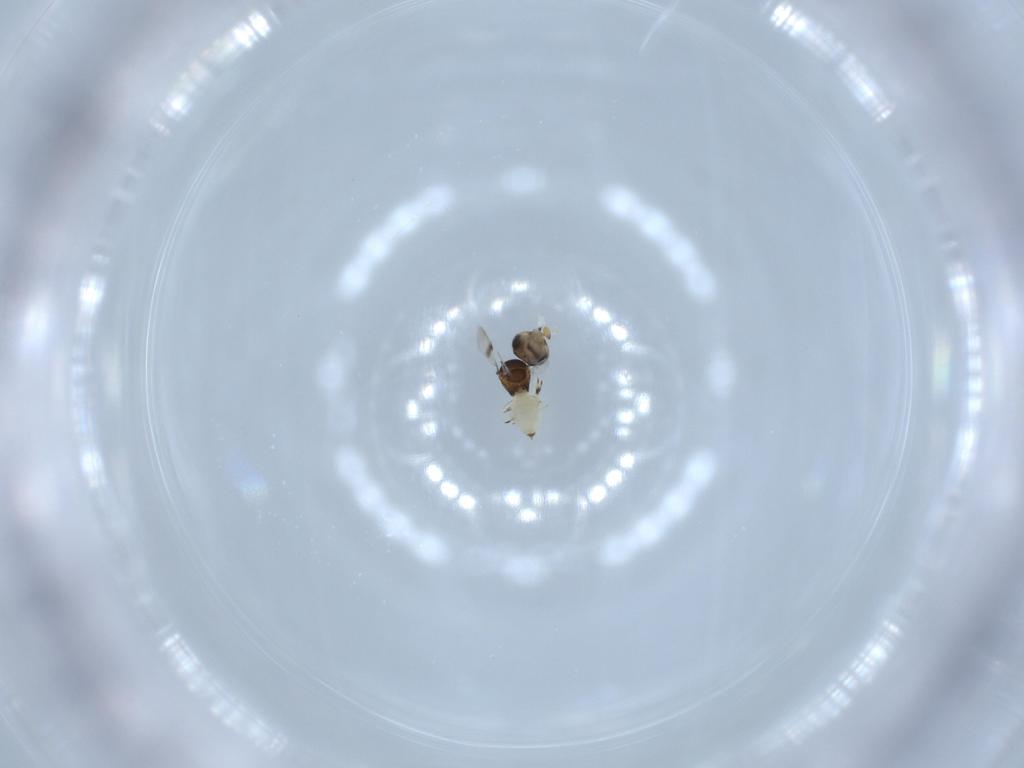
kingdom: Animalia
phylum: Arthropoda
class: Insecta
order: Hymenoptera
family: Scelionidae
